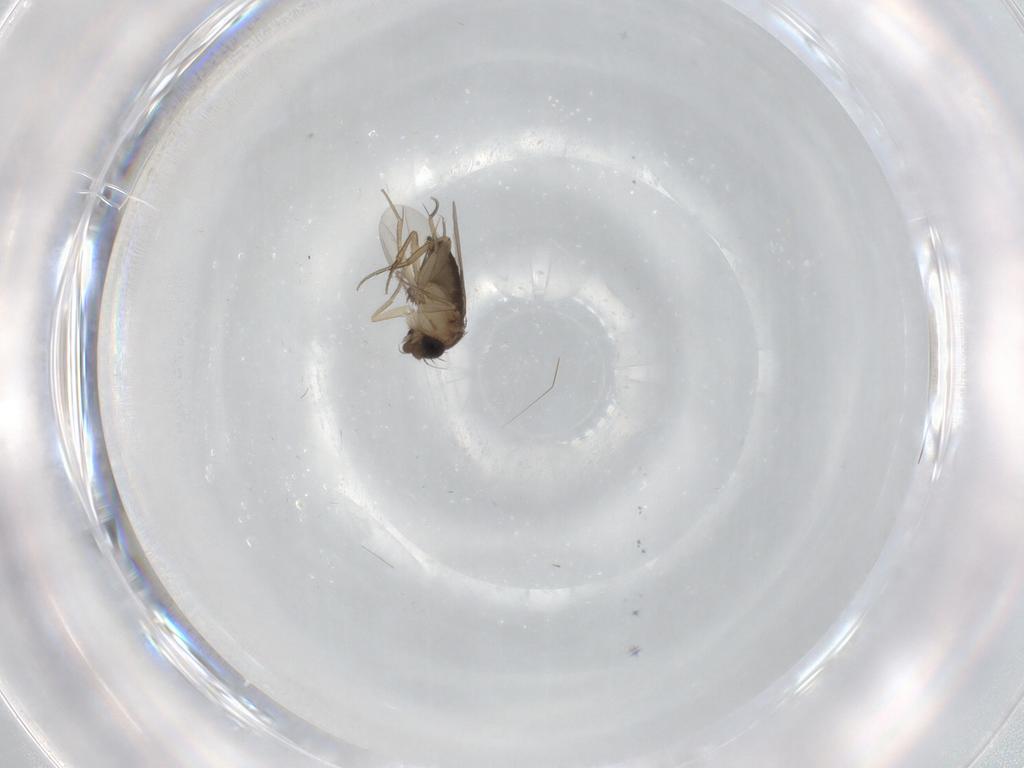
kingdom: Animalia
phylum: Arthropoda
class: Insecta
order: Diptera
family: Phoridae
